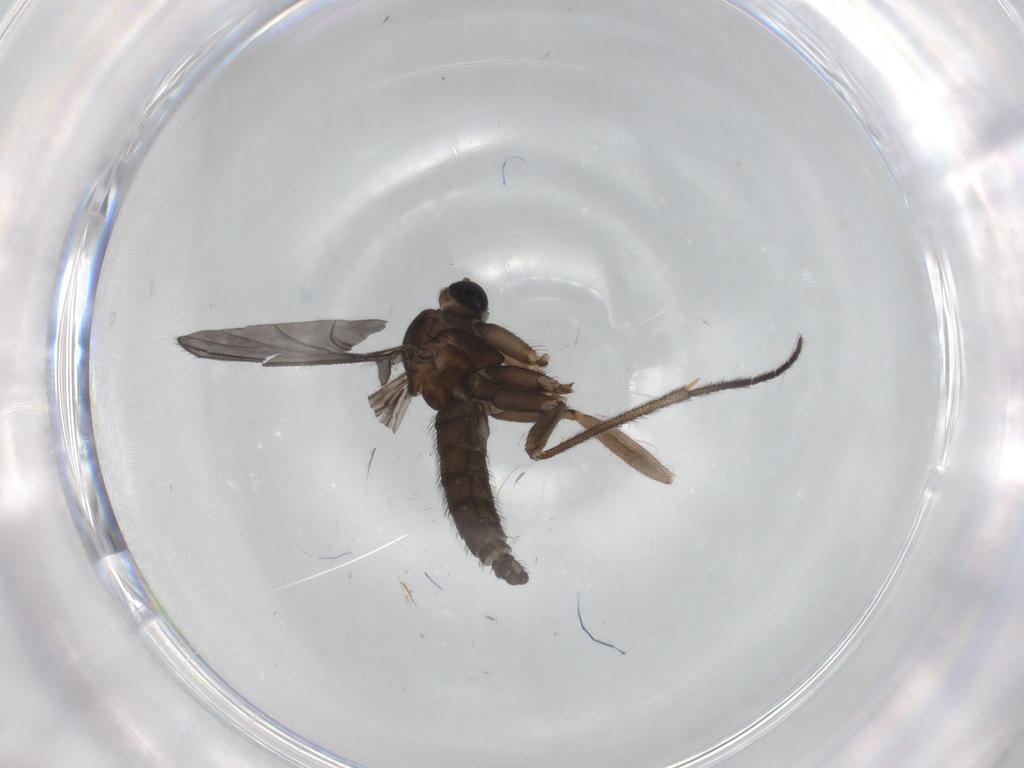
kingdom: Animalia
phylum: Arthropoda
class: Insecta
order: Diptera
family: Sciaridae
